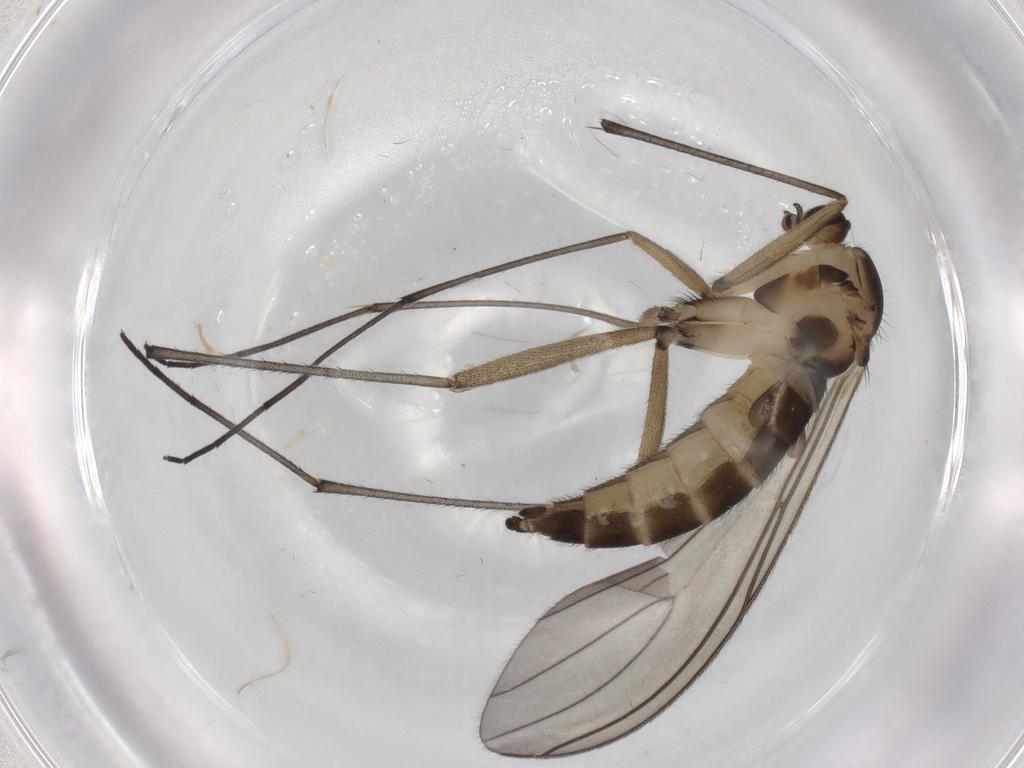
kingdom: Animalia
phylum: Arthropoda
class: Insecta
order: Diptera
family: Sciaridae
